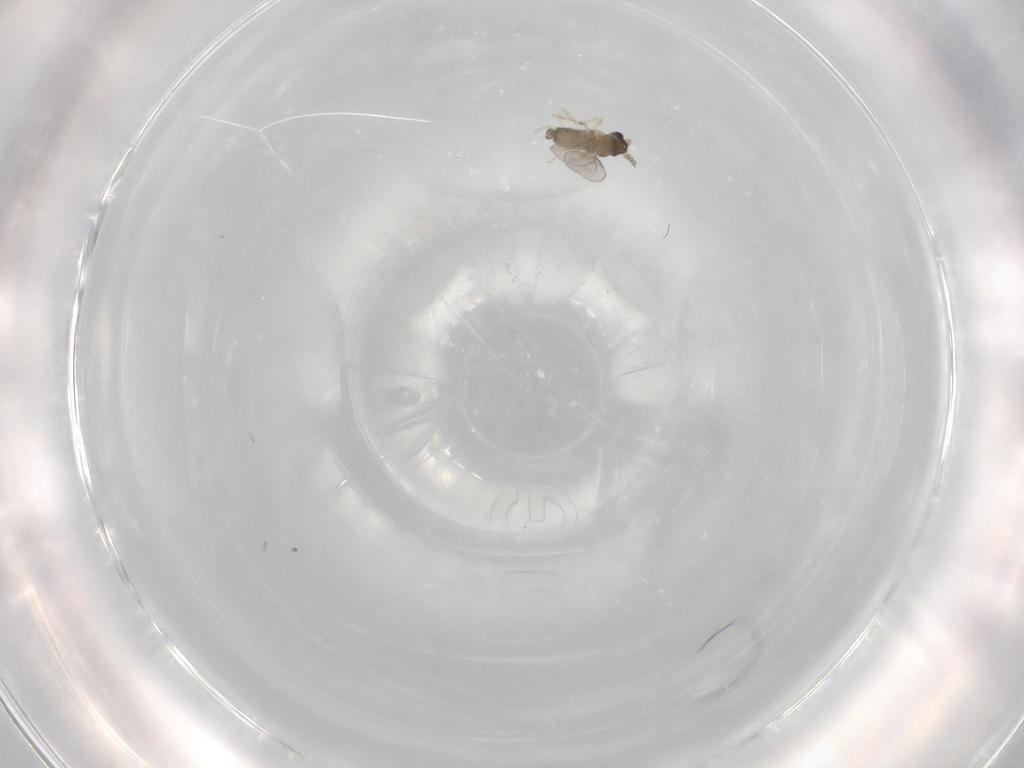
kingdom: Animalia
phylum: Arthropoda
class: Insecta
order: Diptera
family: Cecidomyiidae
